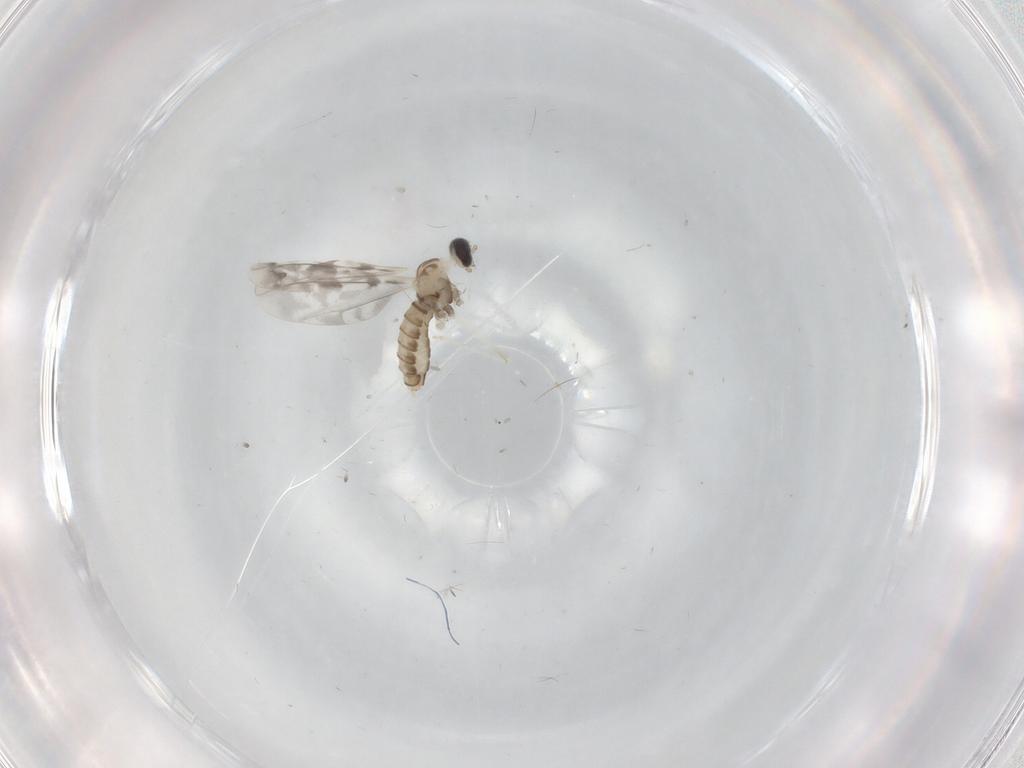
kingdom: Animalia
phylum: Arthropoda
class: Insecta
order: Diptera
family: Cecidomyiidae
